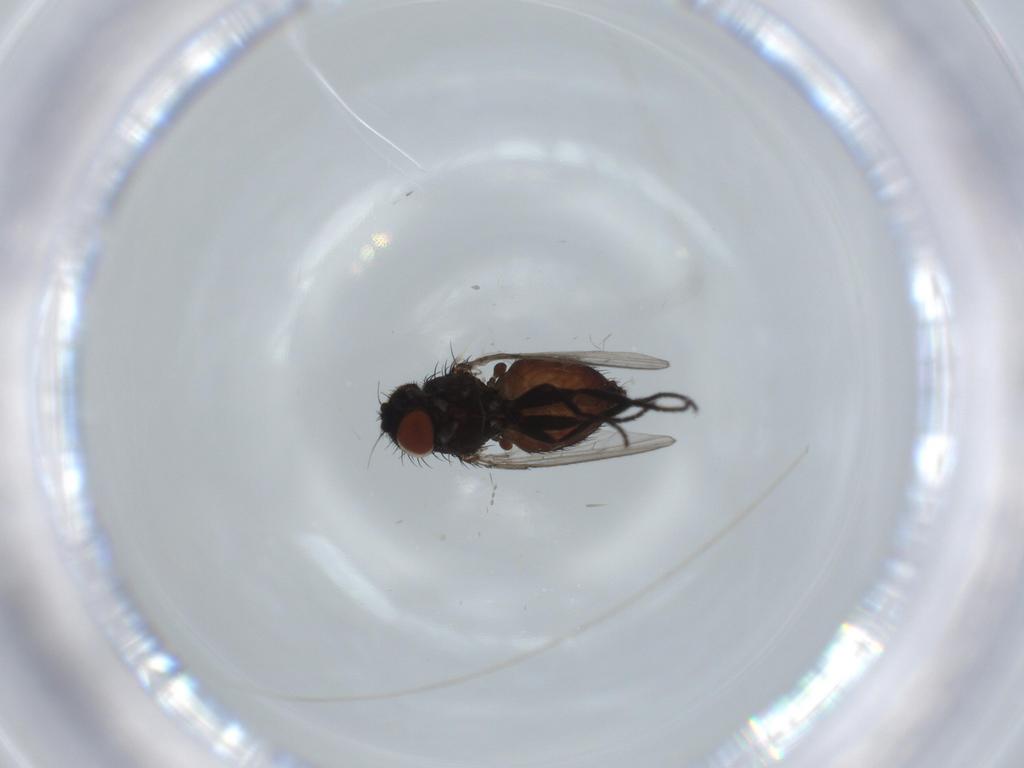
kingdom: Animalia
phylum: Arthropoda
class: Insecta
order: Diptera
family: Milichiidae
